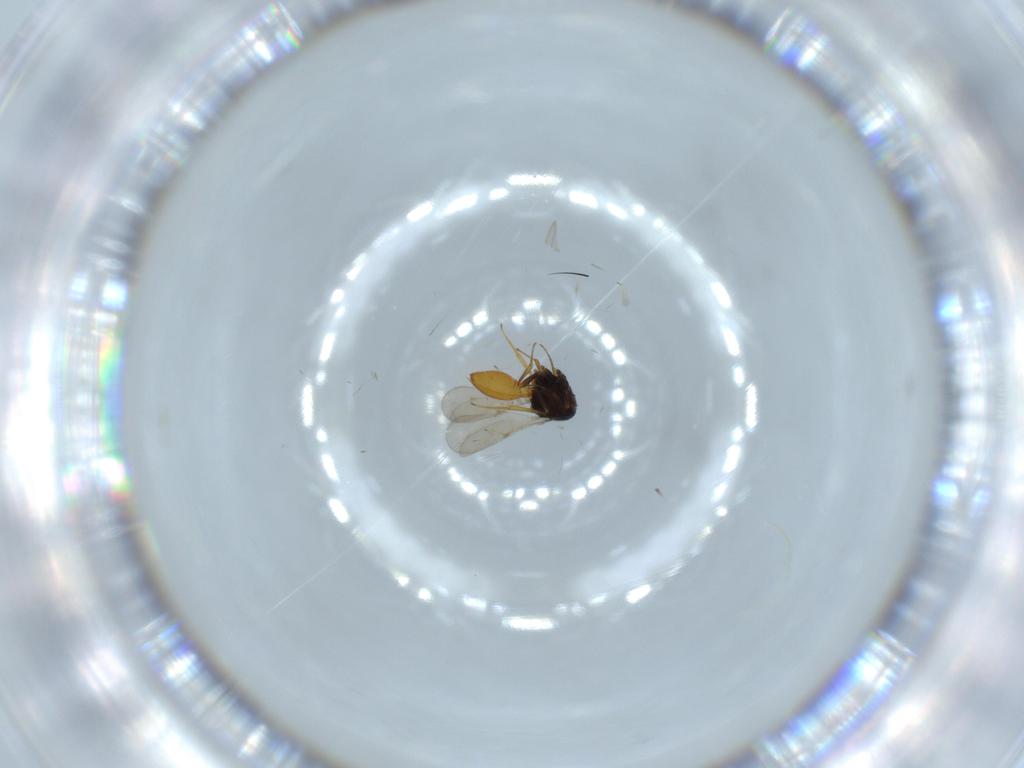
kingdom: Animalia
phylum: Arthropoda
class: Insecta
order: Hymenoptera
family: Scelionidae
